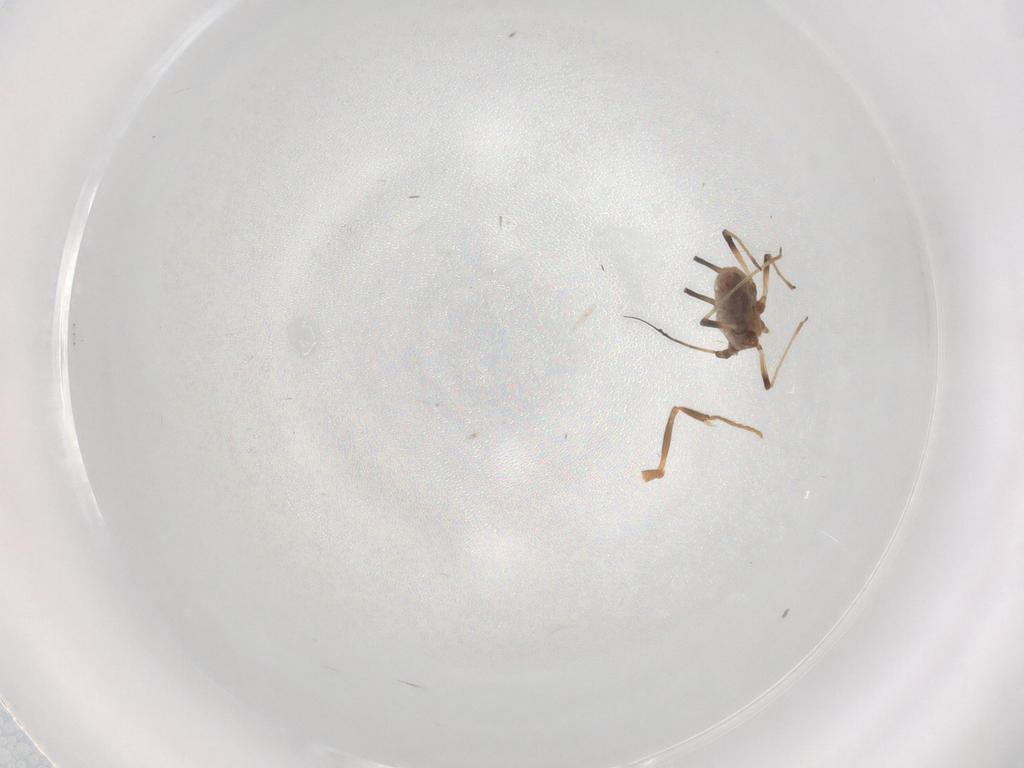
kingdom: Animalia
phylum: Arthropoda
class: Insecta
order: Hemiptera
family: Aphididae
